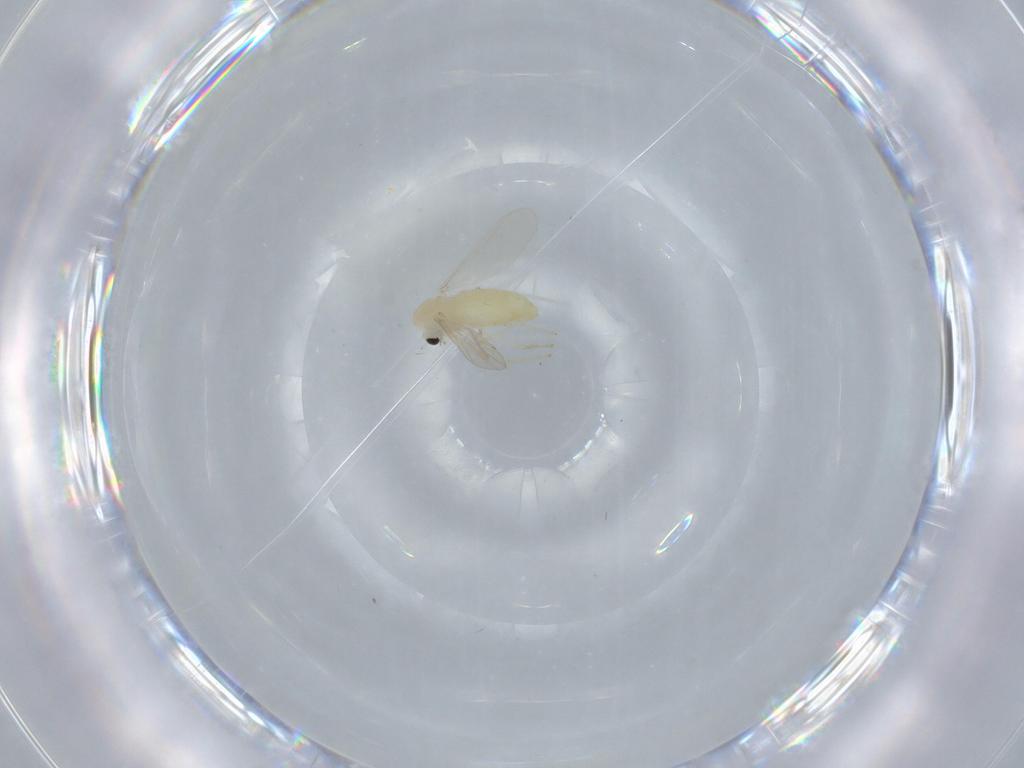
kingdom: Animalia
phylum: Arthropoda
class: Insecta
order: Diptera
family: Chironomidae
